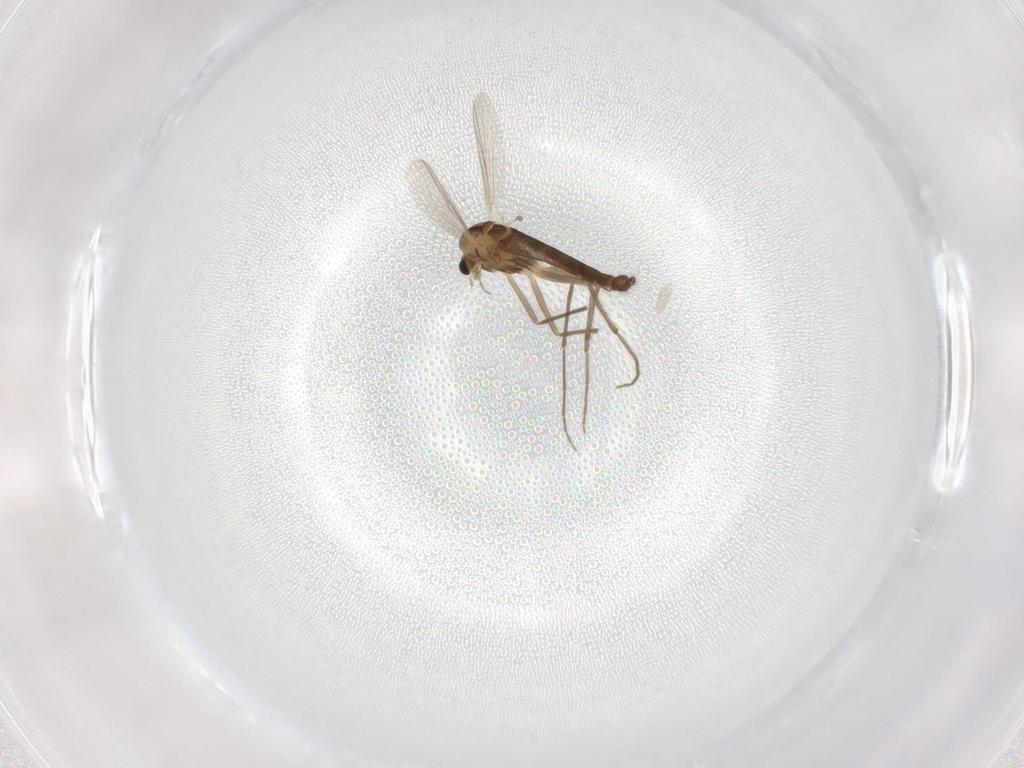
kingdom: Animalia
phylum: Arthropoda
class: Insecta
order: Diptera
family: Chironomidae
